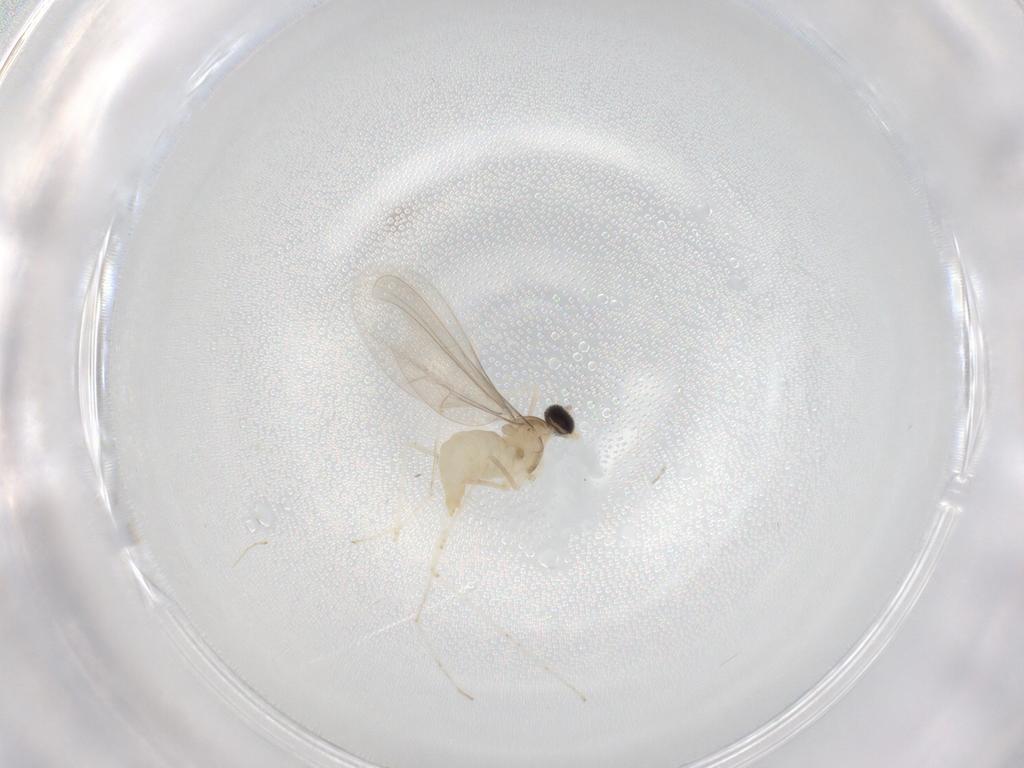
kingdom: Animalia
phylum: Arthropoda
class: Insecta
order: Diptera
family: Cecidomyiidae
